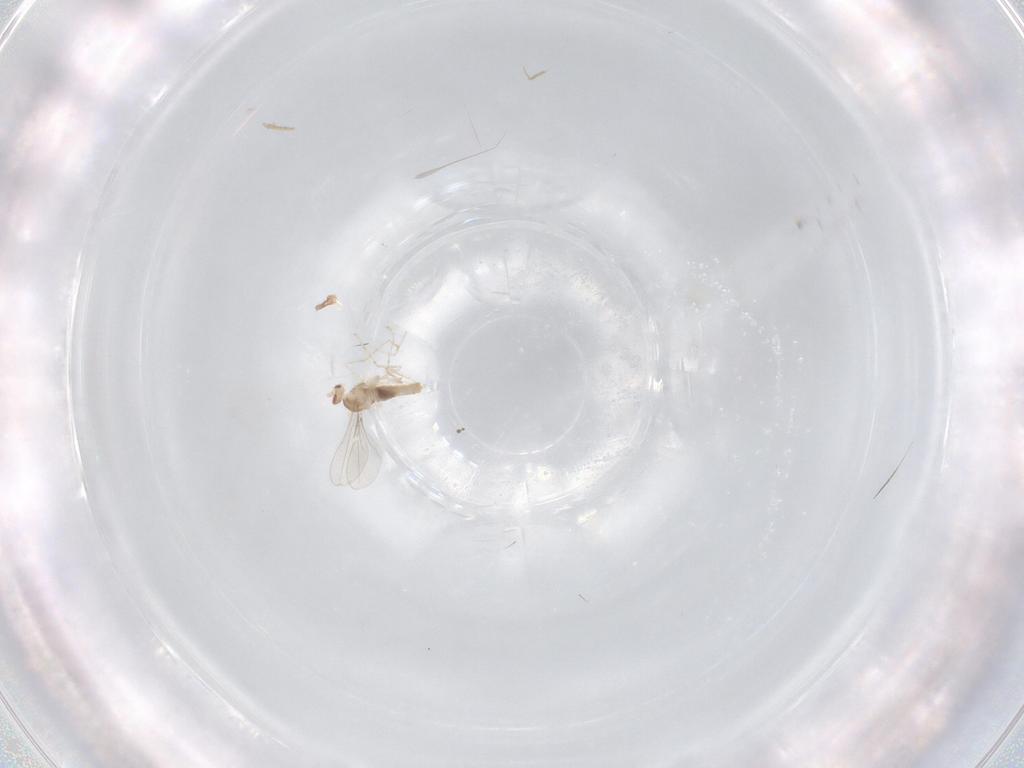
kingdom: Animalia
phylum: Arthropoda
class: Insecta
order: Diptera
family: Cecidomyiidae
